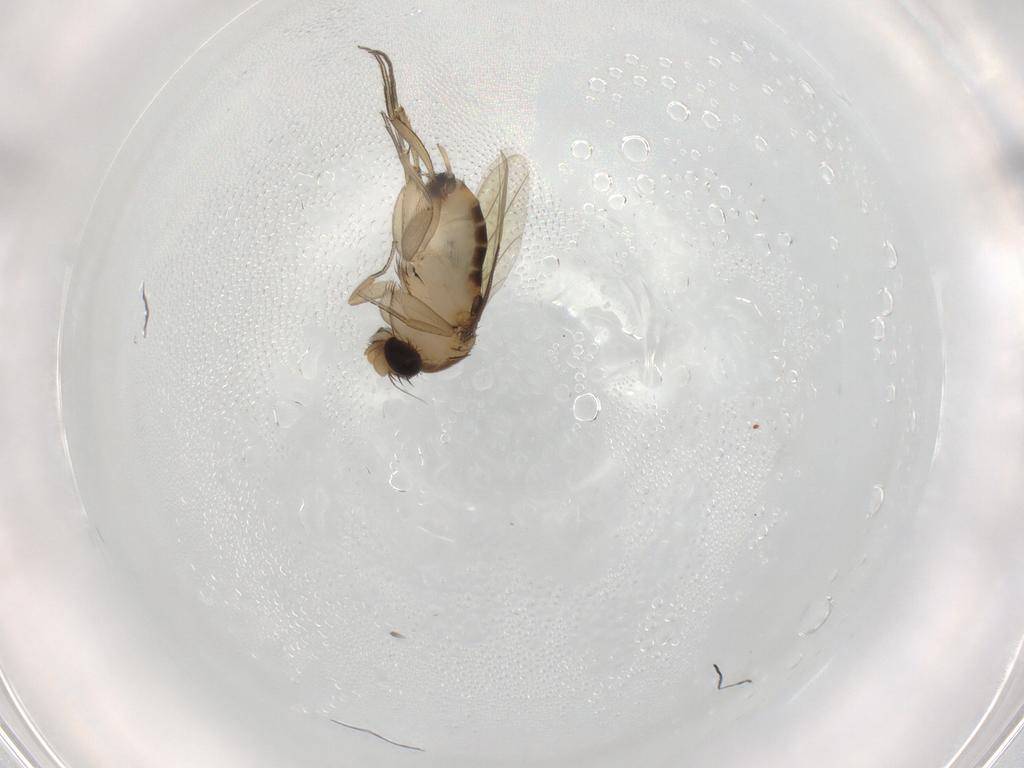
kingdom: Animalia
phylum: Arthropoda
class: Insecta
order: Diptera
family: Phoridae
